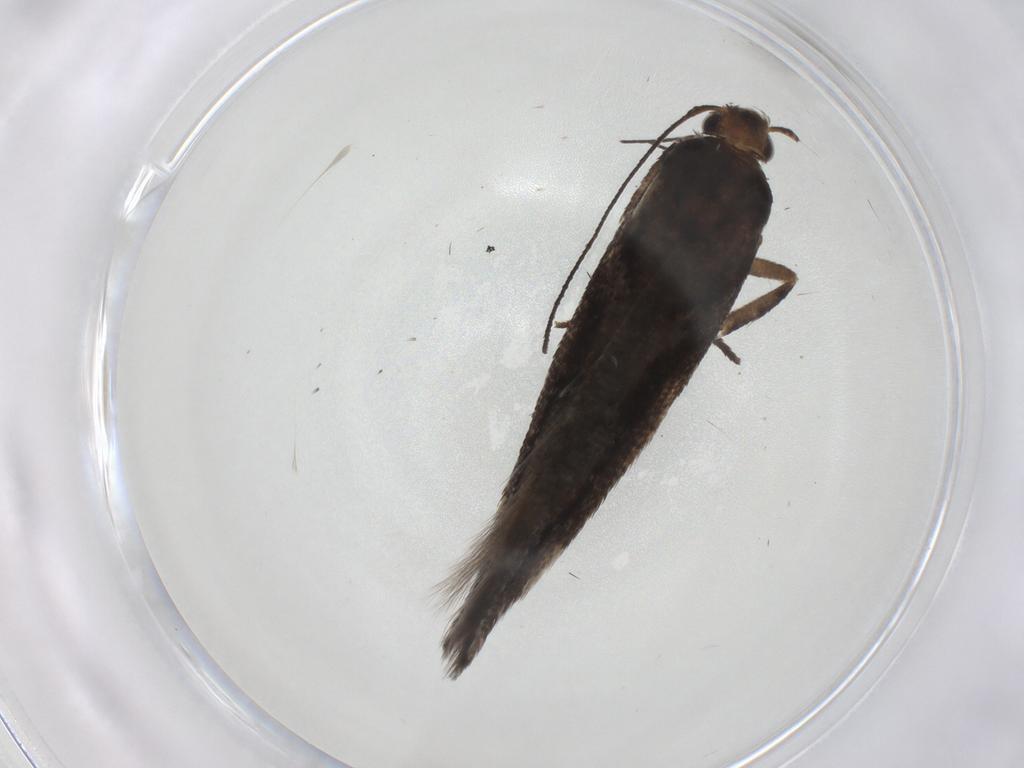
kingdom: Animalia
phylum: Arthropoda
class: Insecta
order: Lepidoptera
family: Gelechiidae
